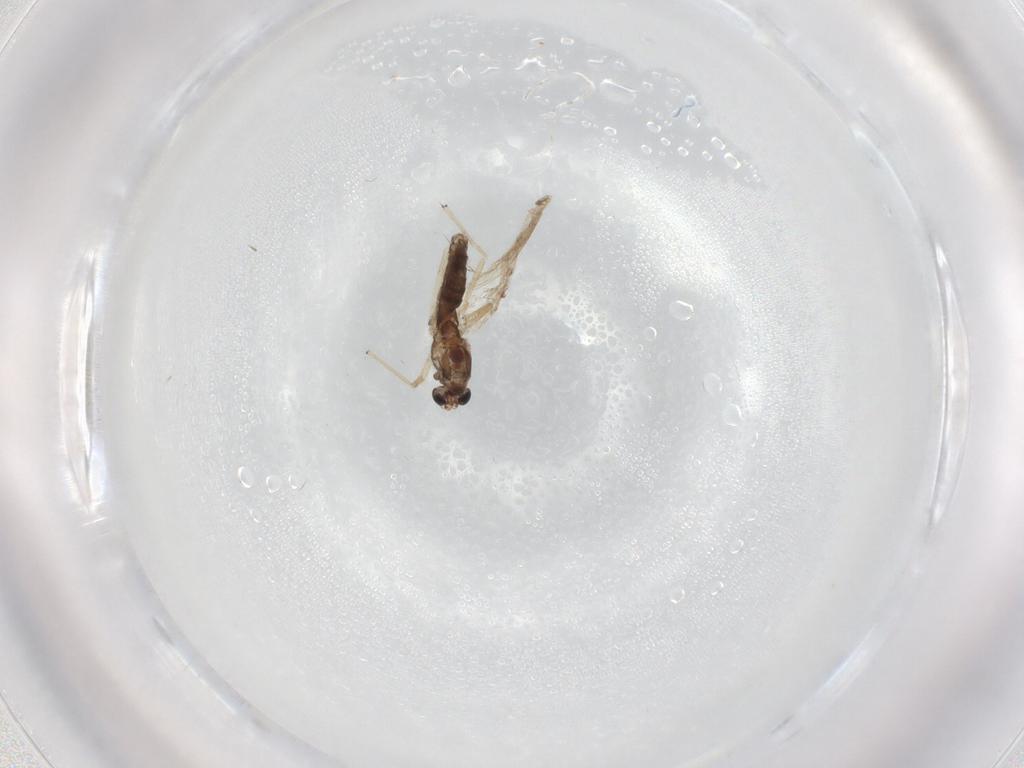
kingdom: Animalia
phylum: Arthropoda
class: Insecta
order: Diptera
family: Chironomidae
